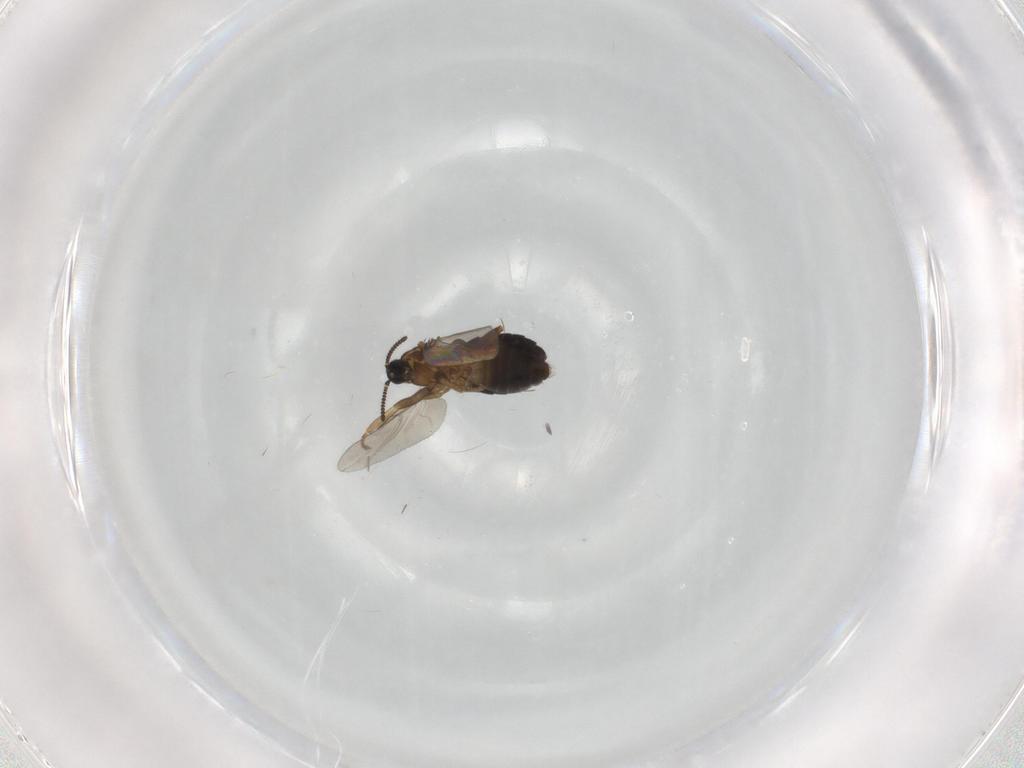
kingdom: Animalia
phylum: Arthropoda
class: Insecta
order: Diptera
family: Scatopsidae
